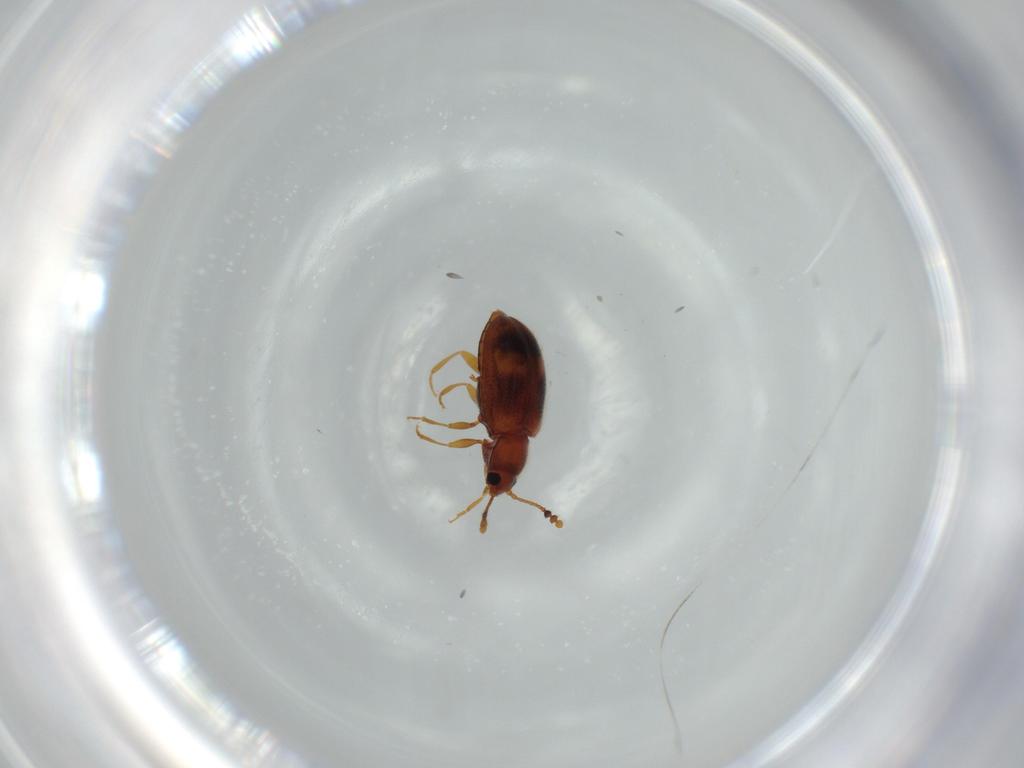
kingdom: Animalia
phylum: Arthropoda
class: Insecta
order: Coleoptera
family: Erotylidae
